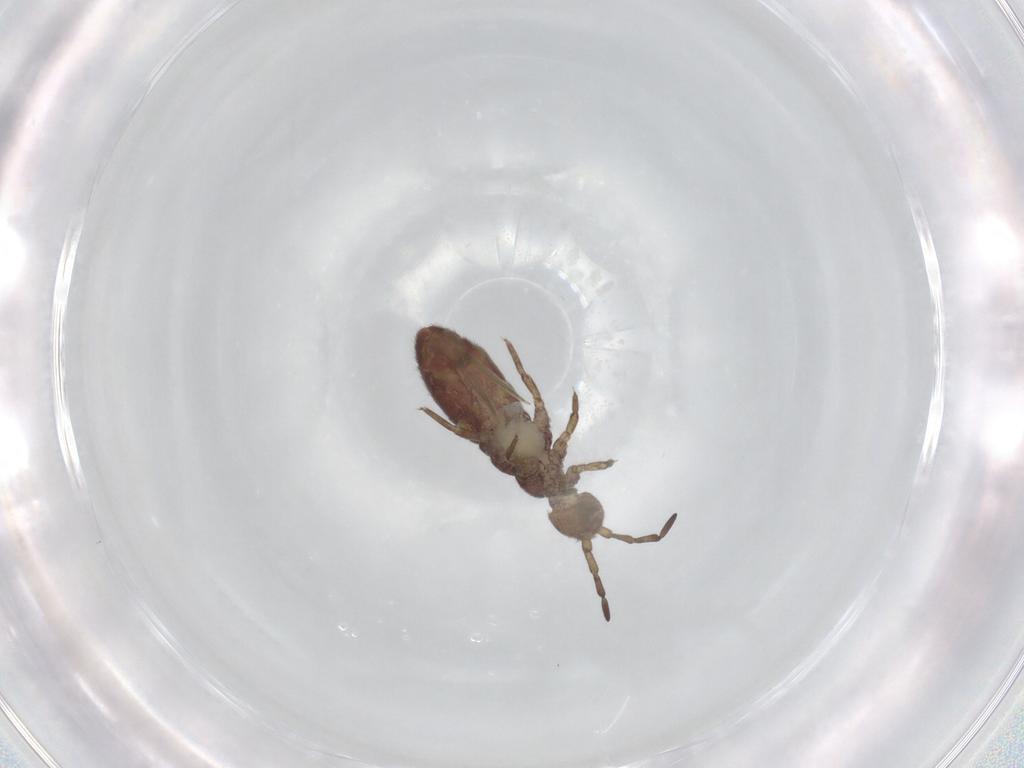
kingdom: Animalia
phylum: Arthropoda
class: Collembola
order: Entomobryomorpha
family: Isotomidae
